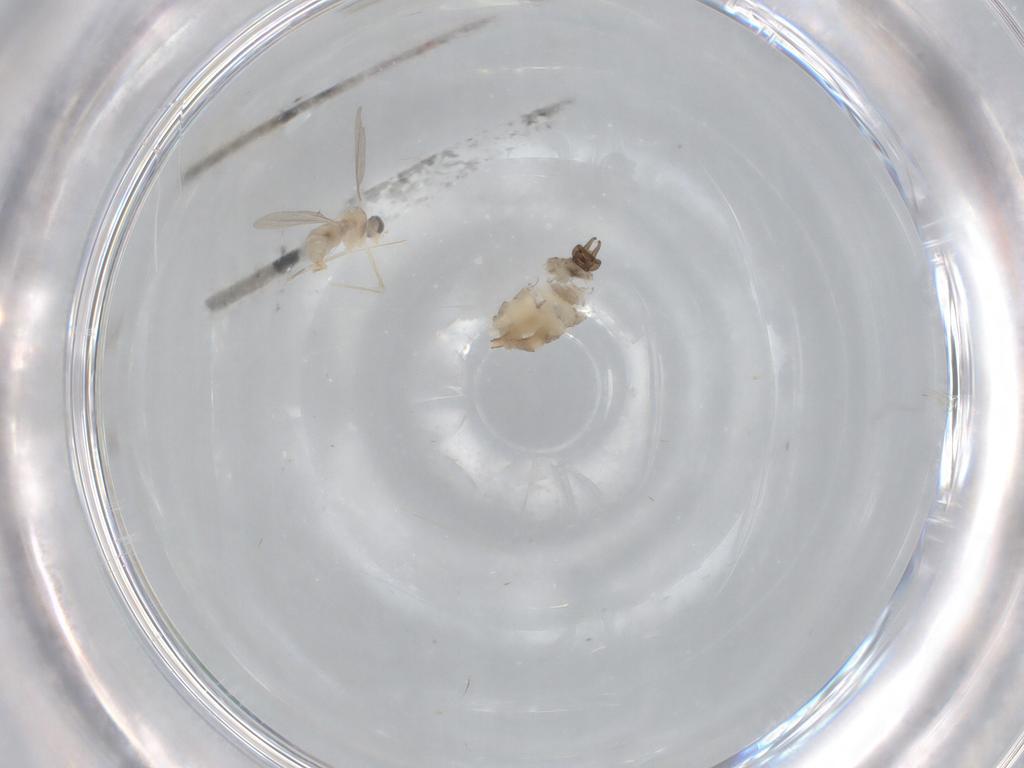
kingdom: Animalia
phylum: Arthropoda
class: Insecta
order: Diptera
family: Psychodidae
